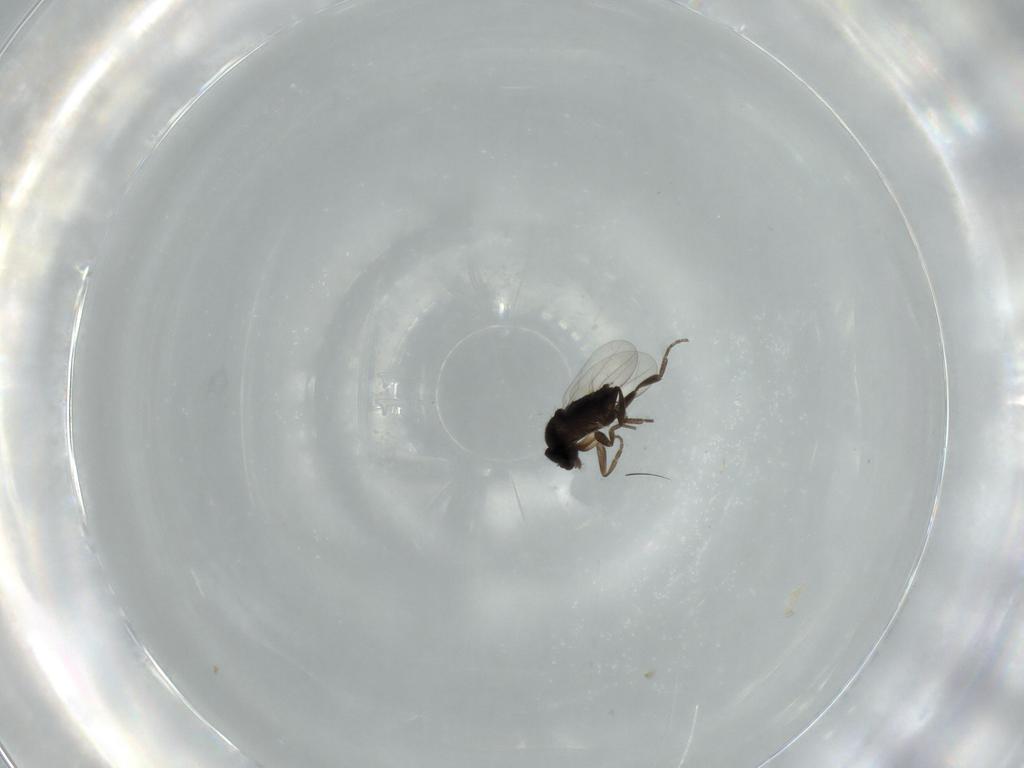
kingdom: Animalia
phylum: Arthropoda
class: Insecta
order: Diptera
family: Phoridae
